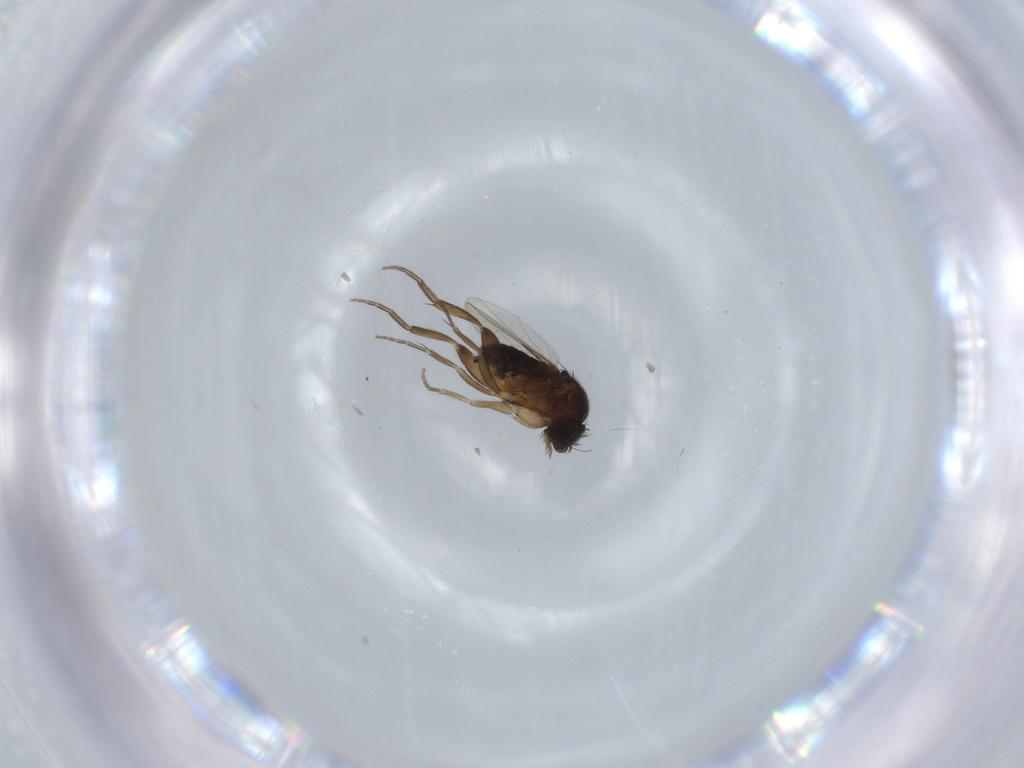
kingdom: Animalia
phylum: Arthropoda
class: Insecta
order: Diptera
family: Phoridae
